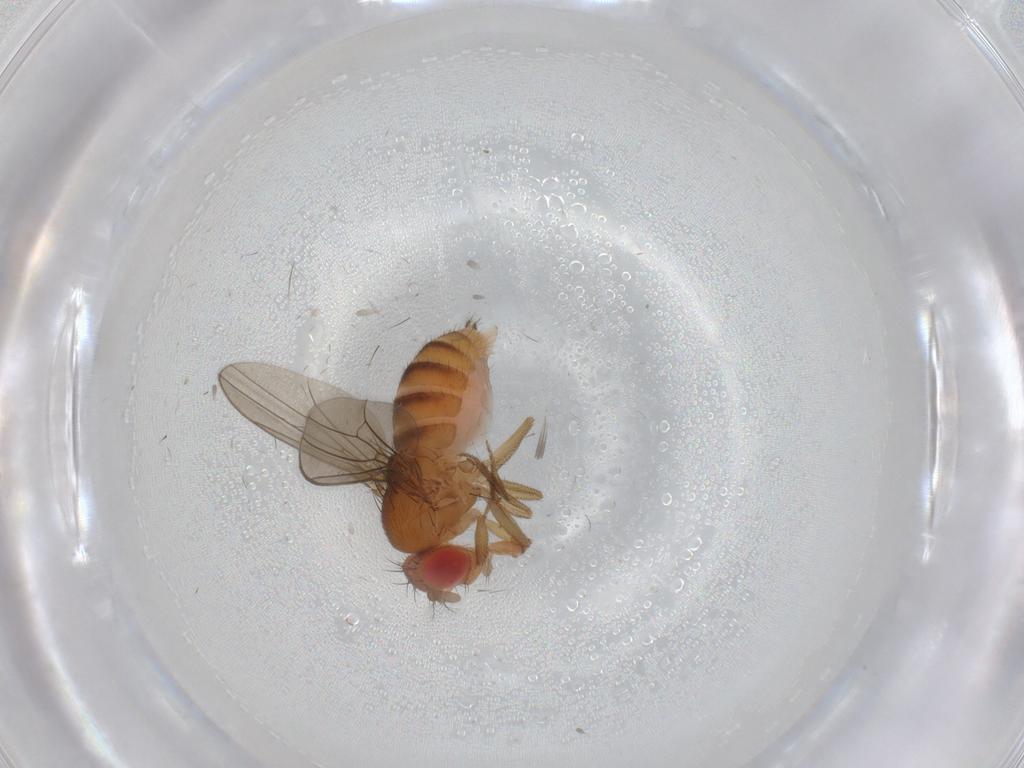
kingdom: Animalia
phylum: Arthropoda
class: Insecta
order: Diptera
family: Drosophilidae
